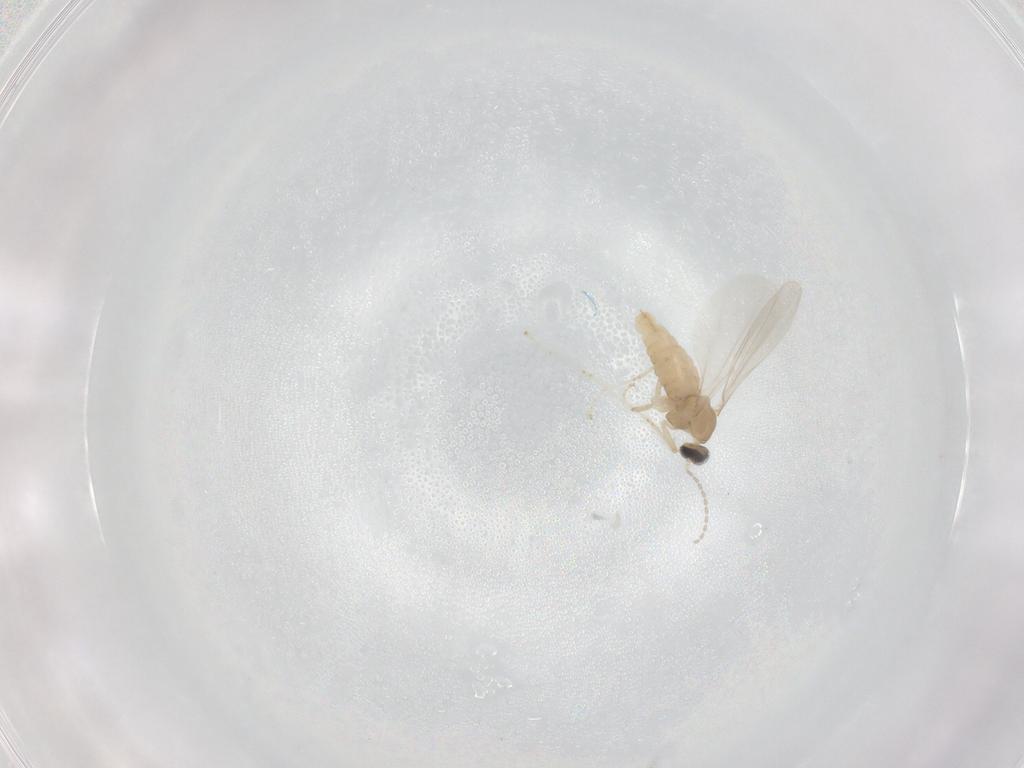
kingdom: Animalia
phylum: Arthropoda
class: Insecta
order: Diptera
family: Cecidomyiidae
